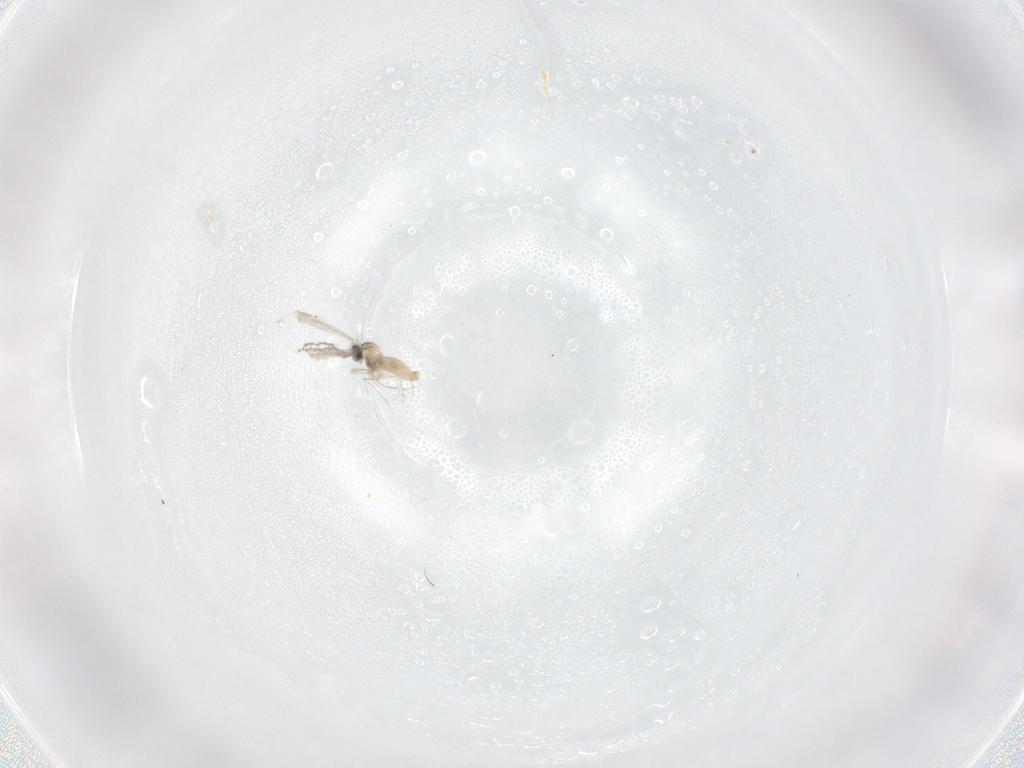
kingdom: Animalia
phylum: Arthropoda
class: Insecta
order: Diptera
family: Cecidomyiidae
